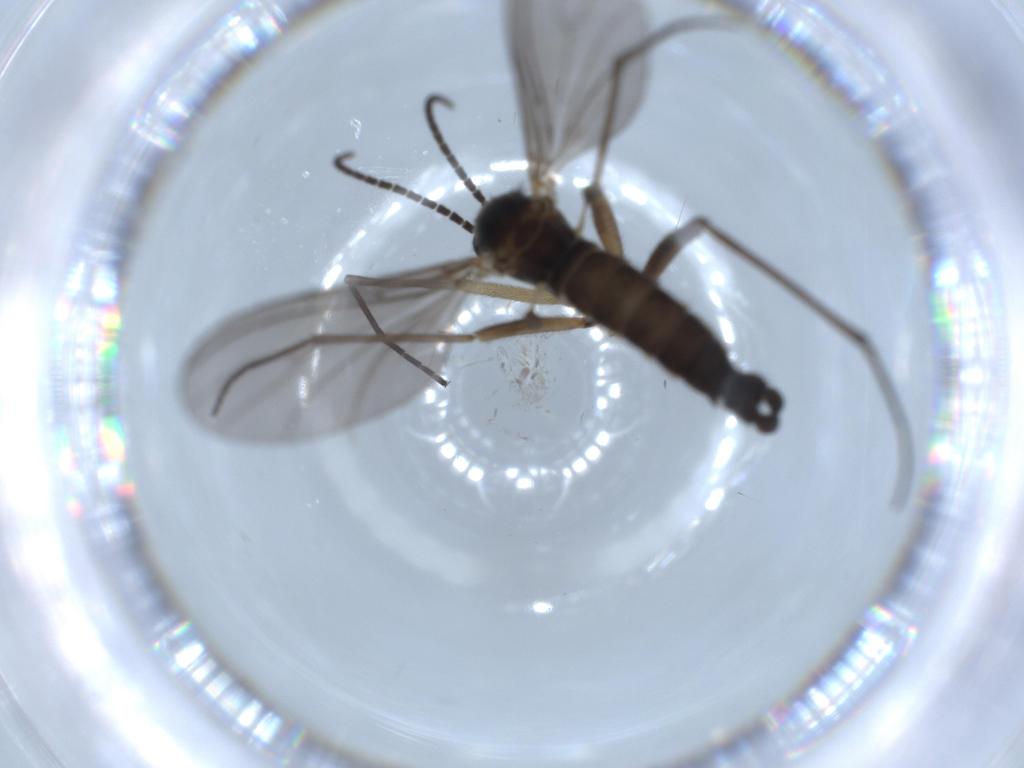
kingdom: Animalia
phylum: Arthropoda
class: Insecta
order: Diptera
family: Sciaridae
